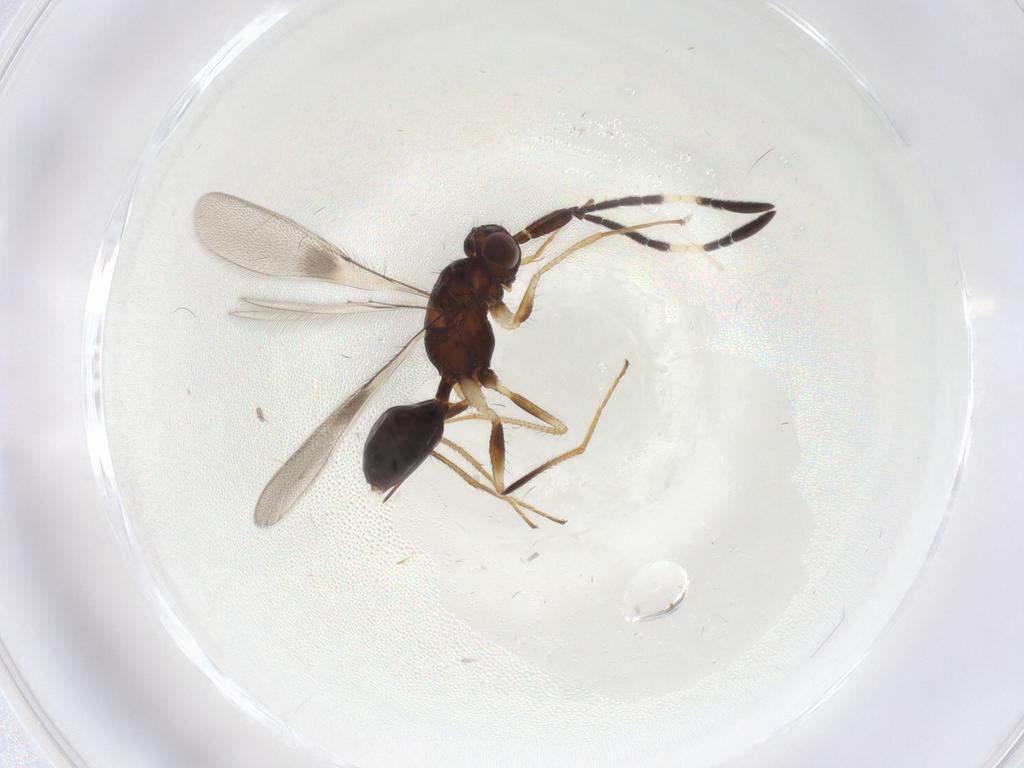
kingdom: Animalia
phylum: Arthropoda
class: Insecta
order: Hymenoptera
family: Mymaridae
